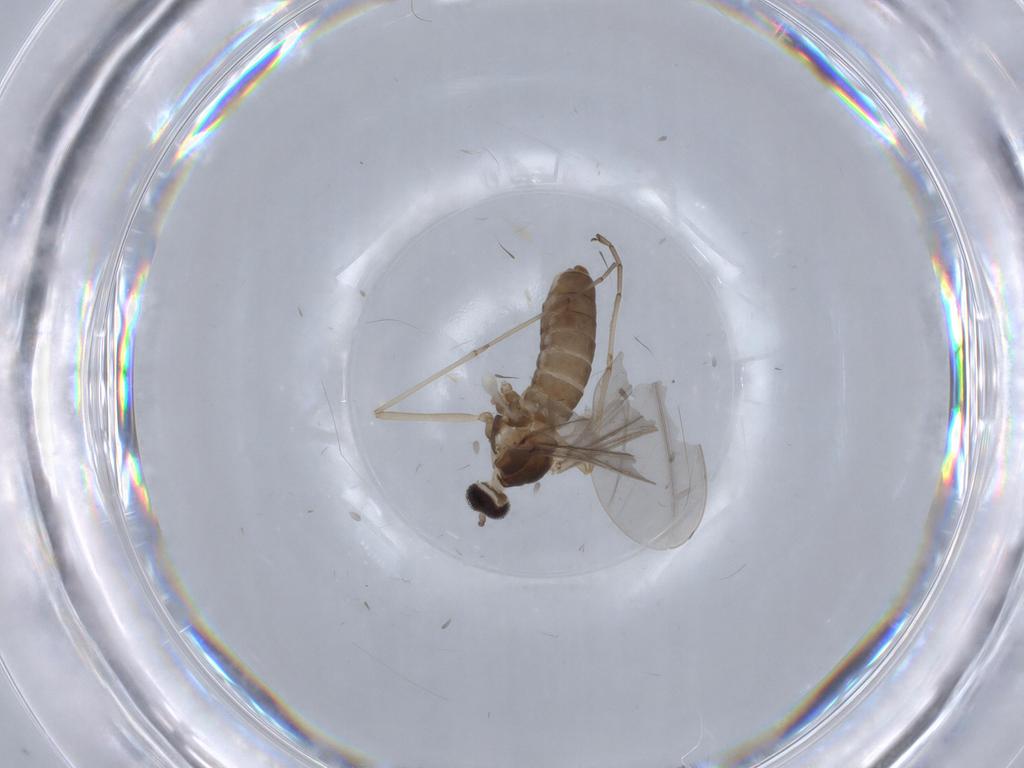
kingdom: Animalia
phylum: Arthropoda
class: Insecta
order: Diptera
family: Cecidomyiidae
